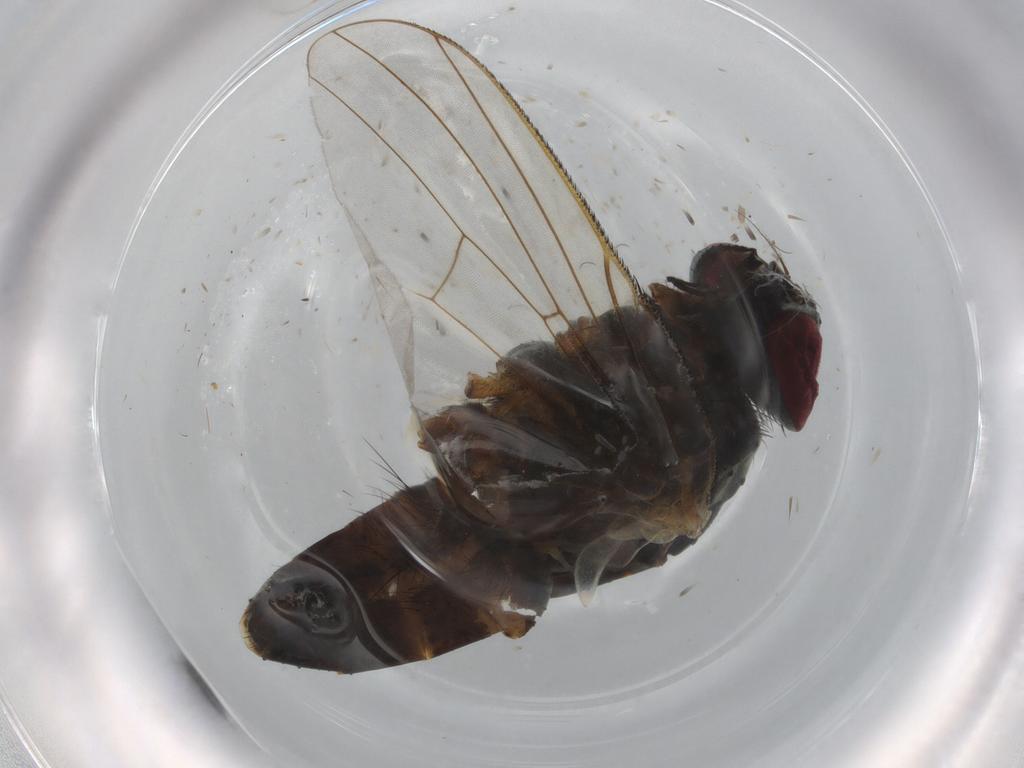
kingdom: Animalia
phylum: Arthropoda
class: Insecta
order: Diptera
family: Muscidae
